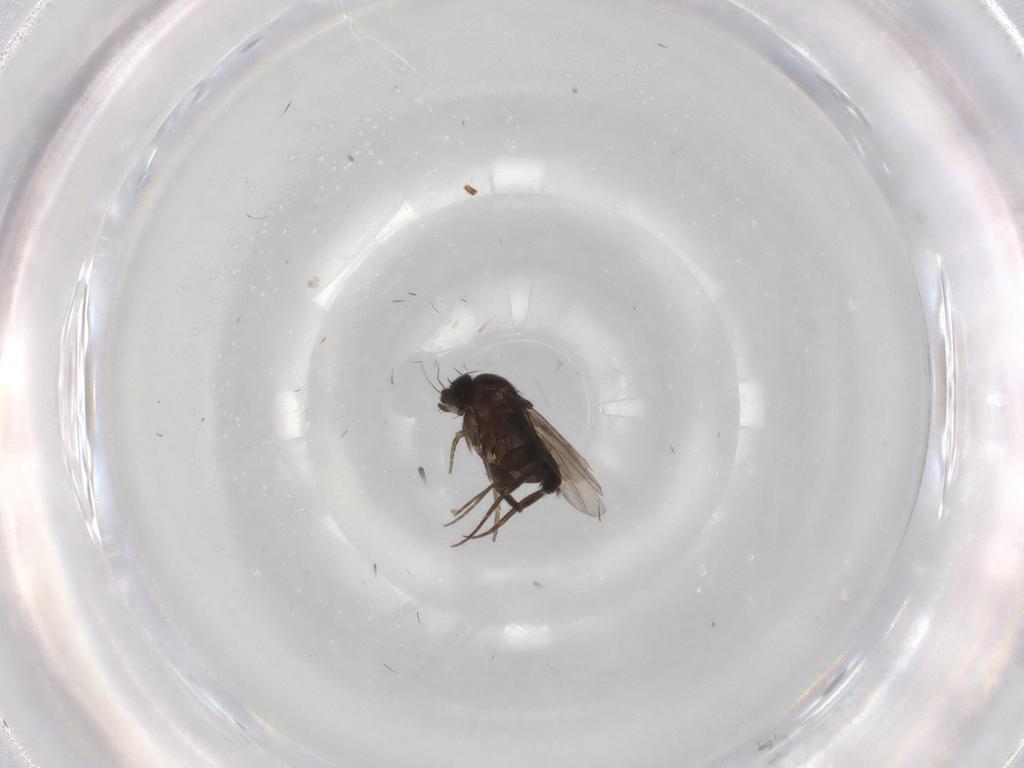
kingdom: Animalia
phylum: Arthropoda
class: Insecta
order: Diptera
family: Phoridae
